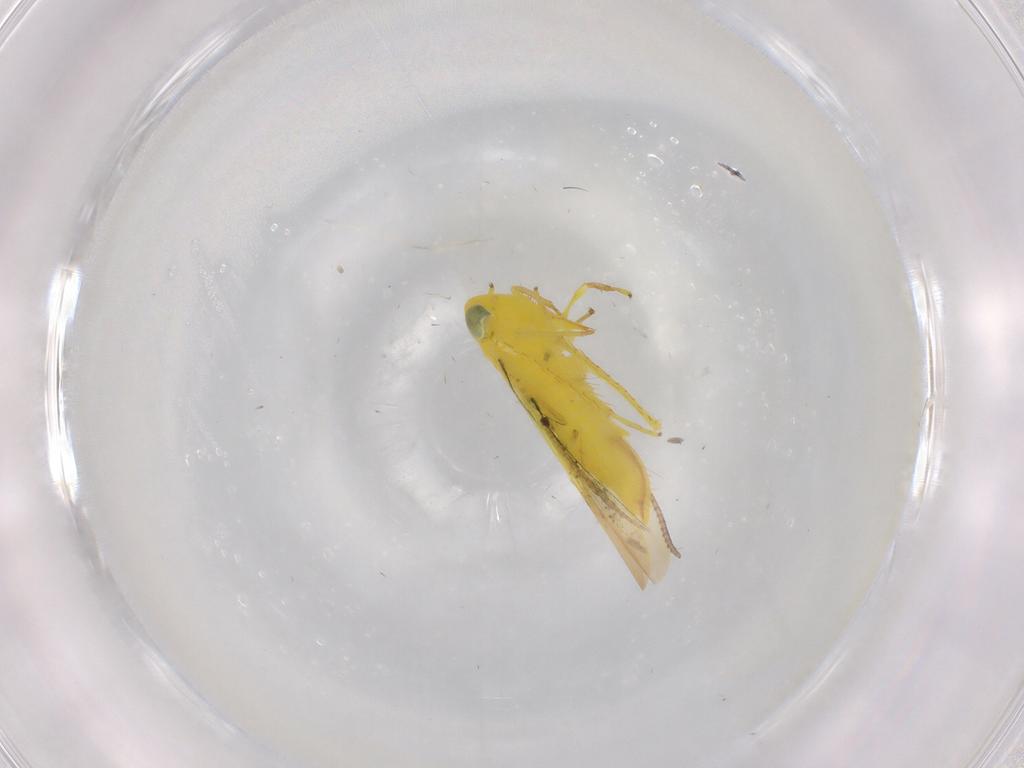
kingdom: Animalia
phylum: Arthropoda
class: Insecta
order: Hemiptera
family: Cicadellidae
